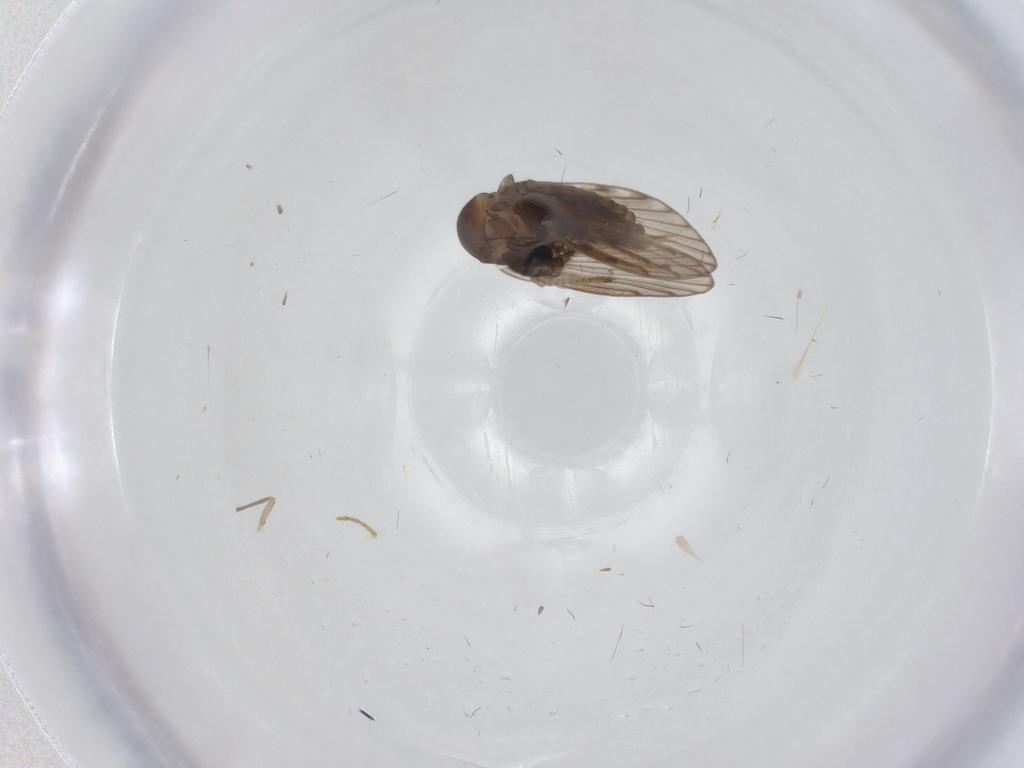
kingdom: Animalia
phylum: Arthropoda
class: Insecta
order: Diptera
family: Psychodidae
